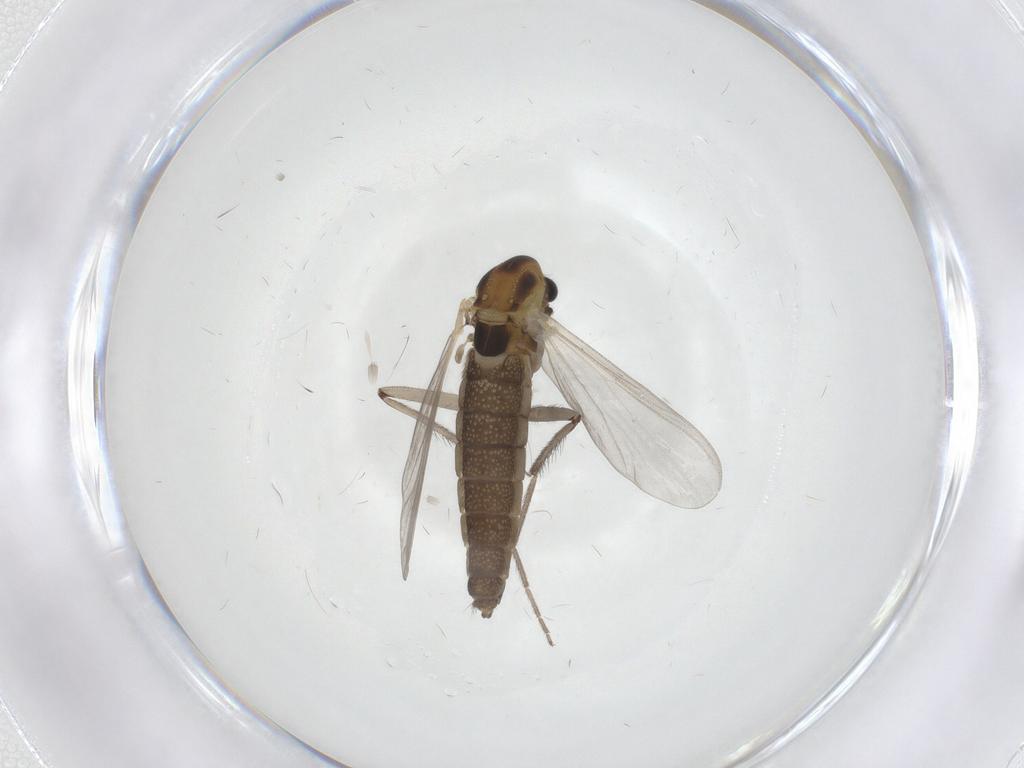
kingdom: Animalia
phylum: Arthropoda
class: Insecta
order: Diptera
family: Chironomidae
